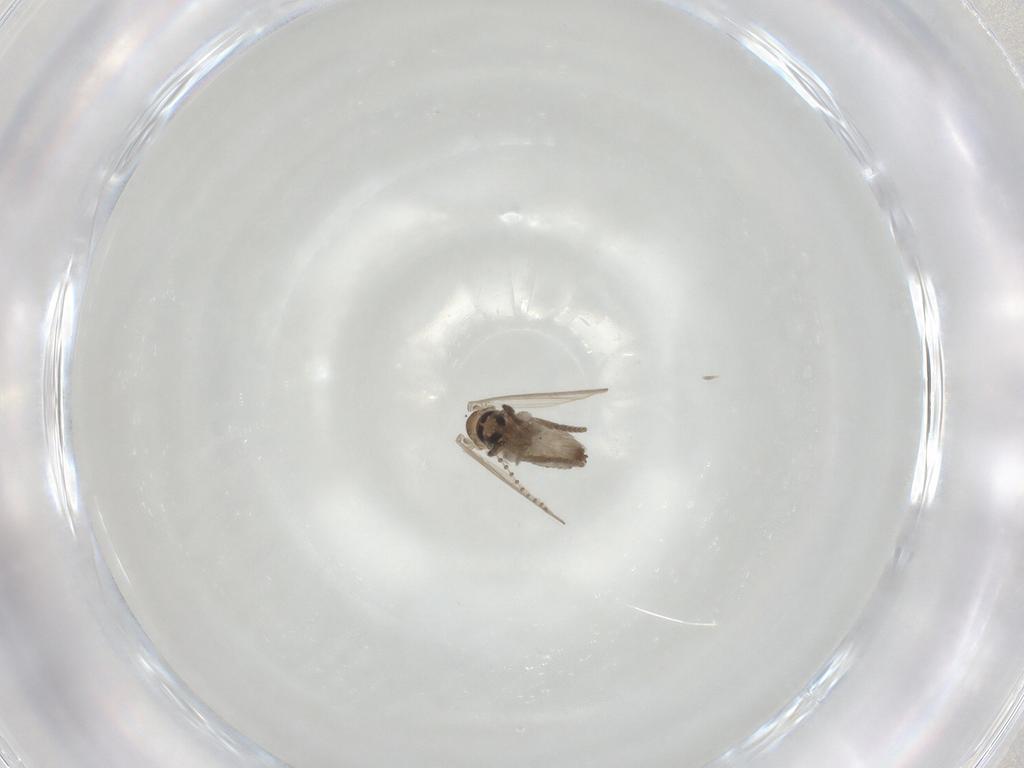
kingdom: Animalia
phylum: Arthropoda
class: Insecta
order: Diptera
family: Psychodidae
